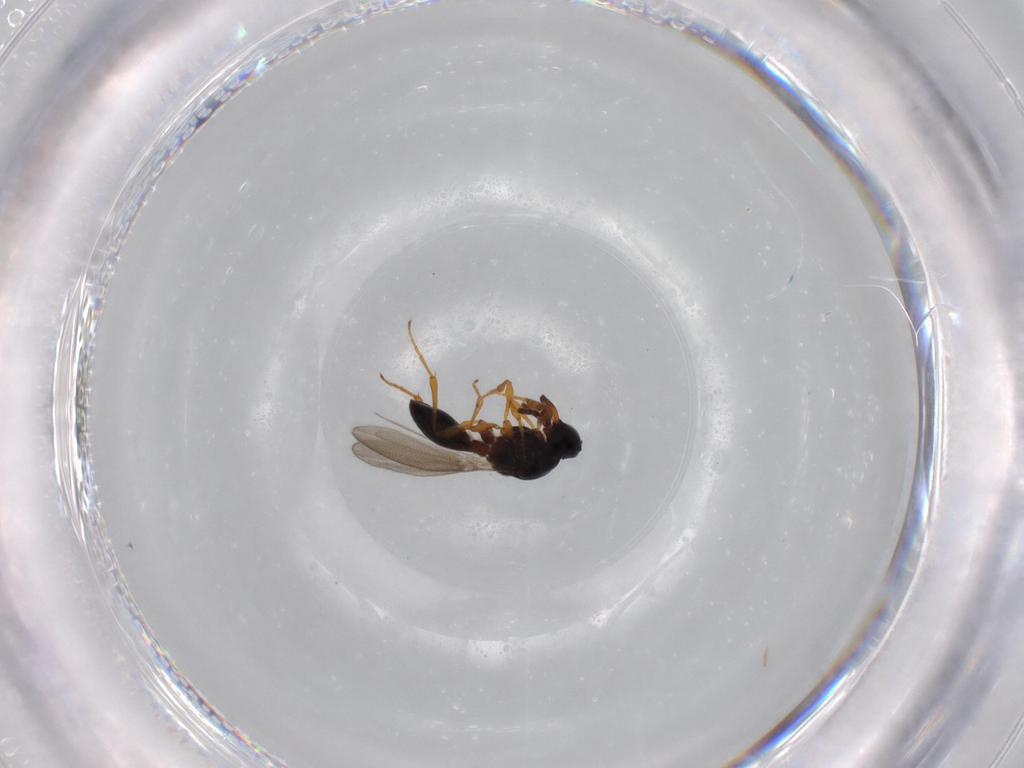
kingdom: Animalia
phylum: Arthropoda
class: Insecta
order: Hymenoptera
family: Platygastridae
